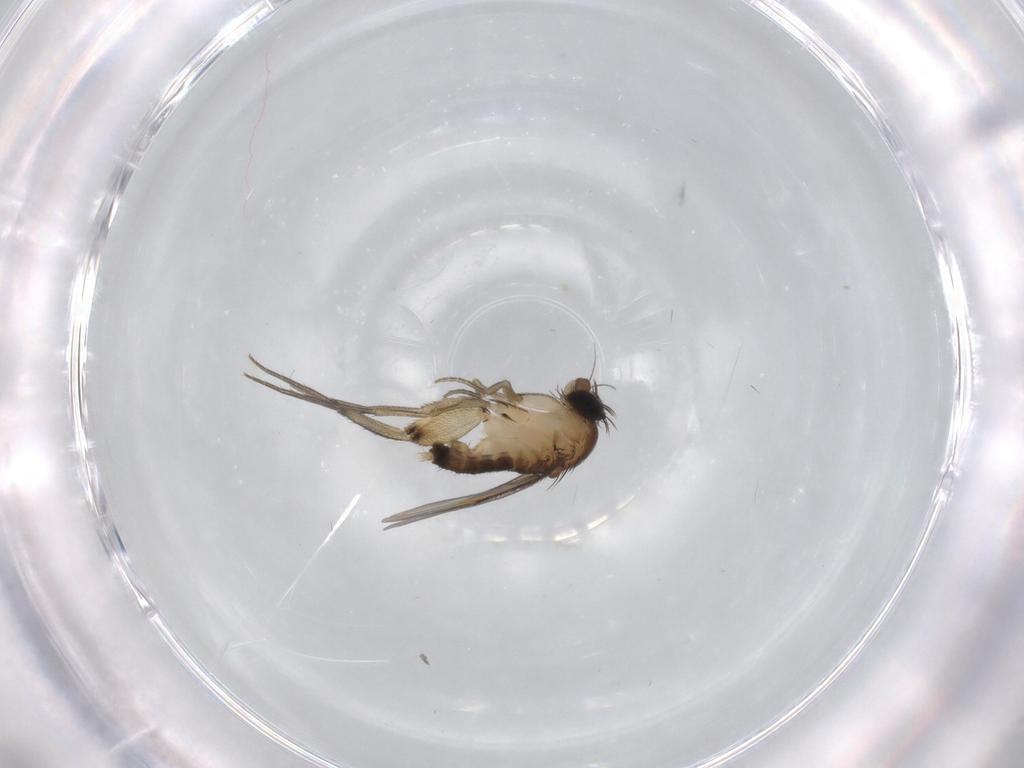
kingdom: Animalia
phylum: Arthropoda
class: Insecta
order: Diptera
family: Phoridae
